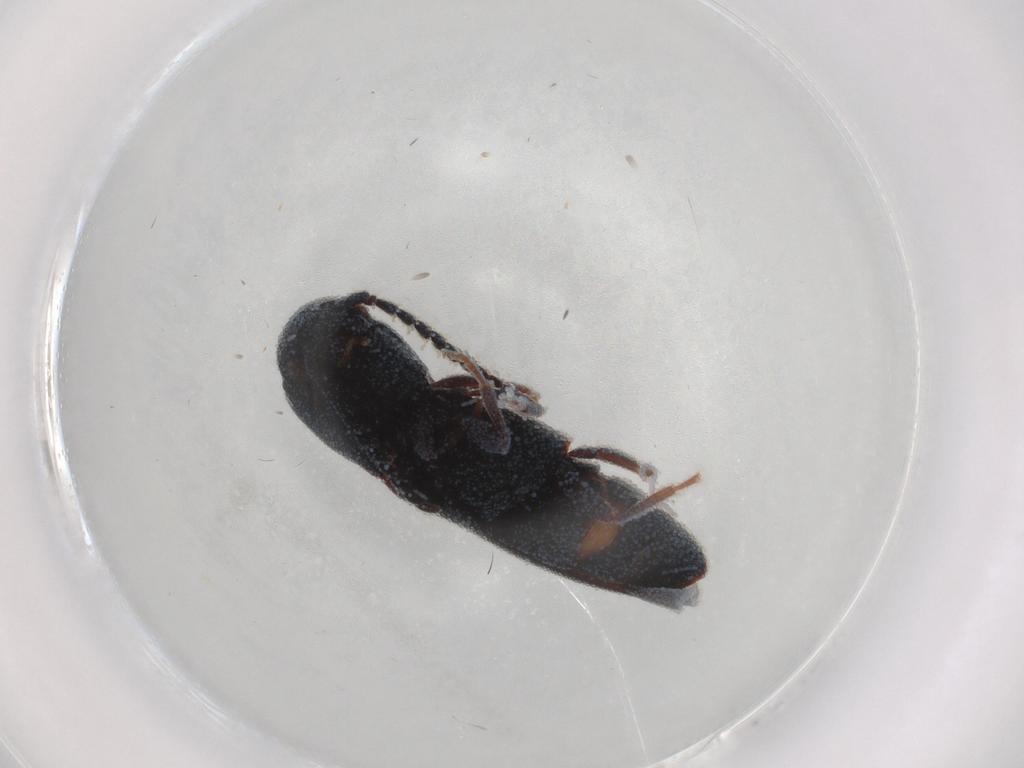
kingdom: Animalia
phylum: Arthropoda
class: Insecta
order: Coleoptera
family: Eucnemidae
